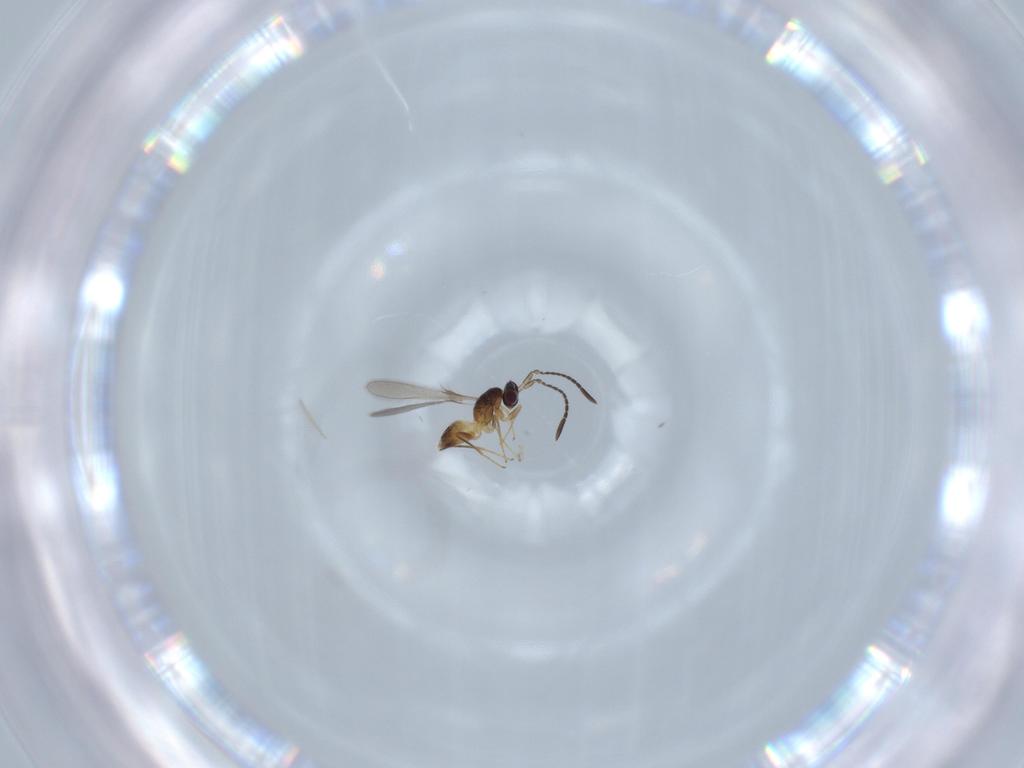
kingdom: Animalia
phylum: Arthropoda
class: Insecta
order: Hymenoptera
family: Mymaridae
